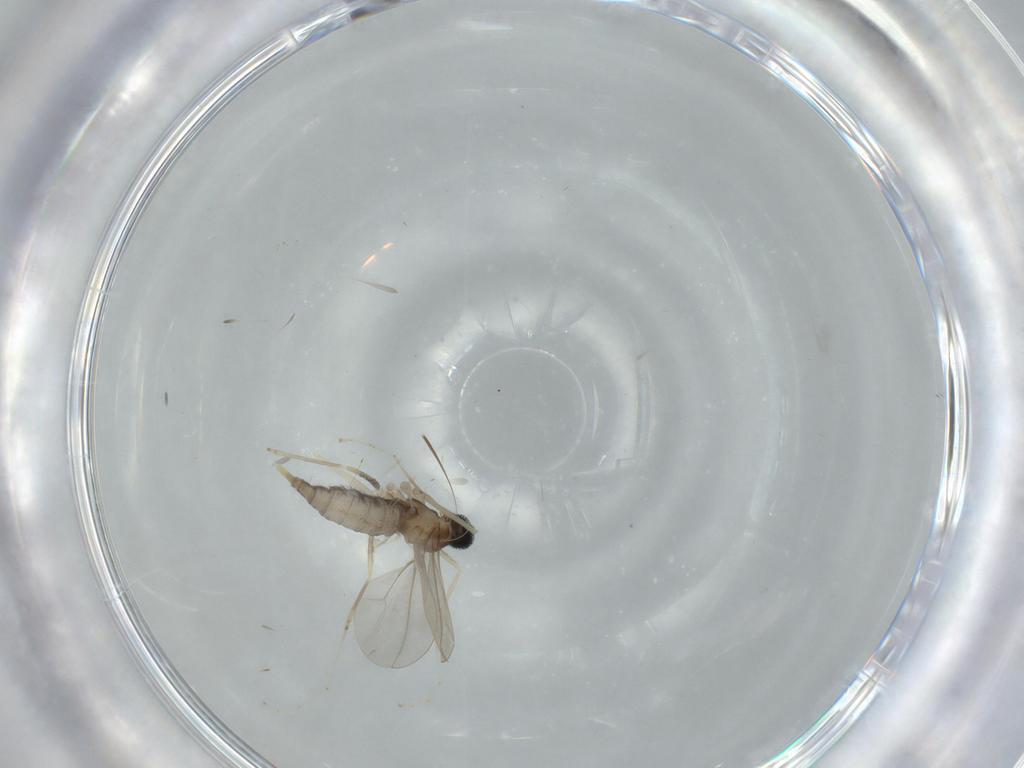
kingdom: Animalia
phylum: Arthropoda
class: Insecta
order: Diptera
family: Cecidomyiidae
